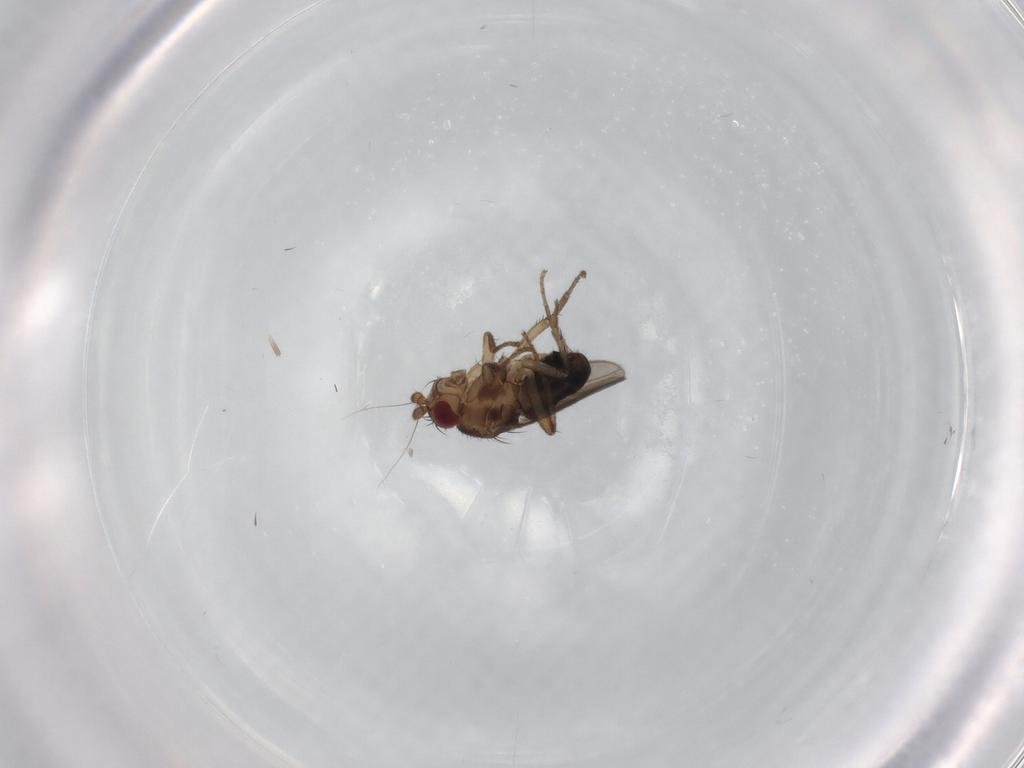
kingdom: Animalia
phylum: Arthropoda
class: Insecta
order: Diptera
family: Sphaeroceridae
